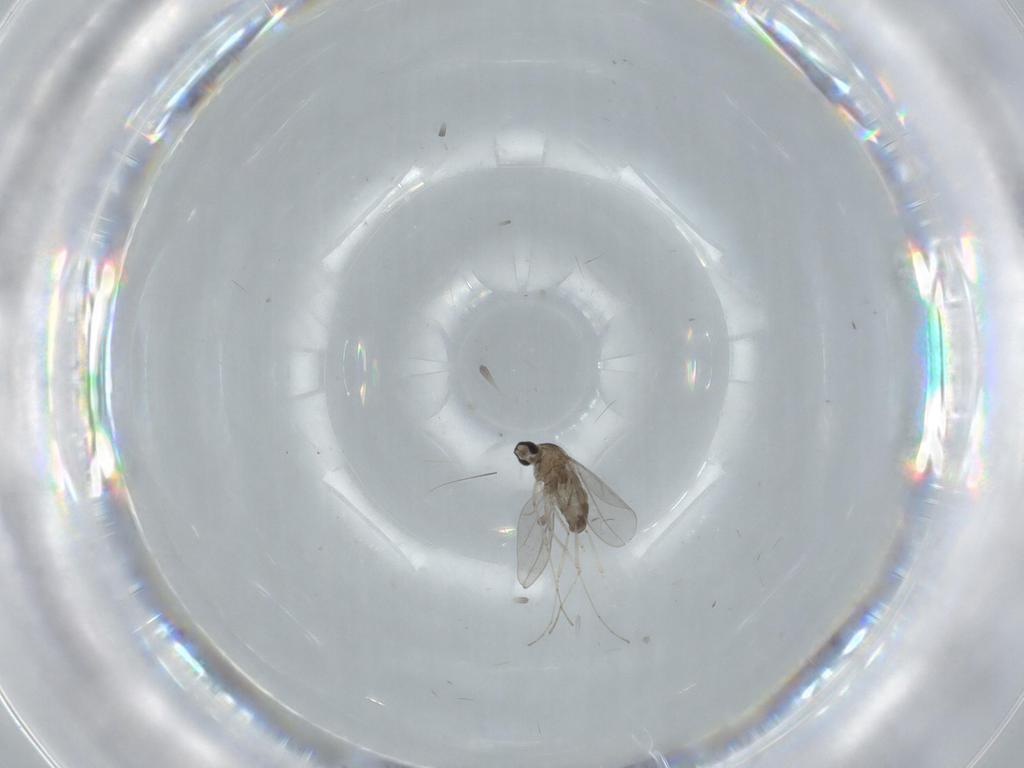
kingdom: Animalia
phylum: Arthropoda
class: Insecta
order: Diptera
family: Cecidomyiidae
